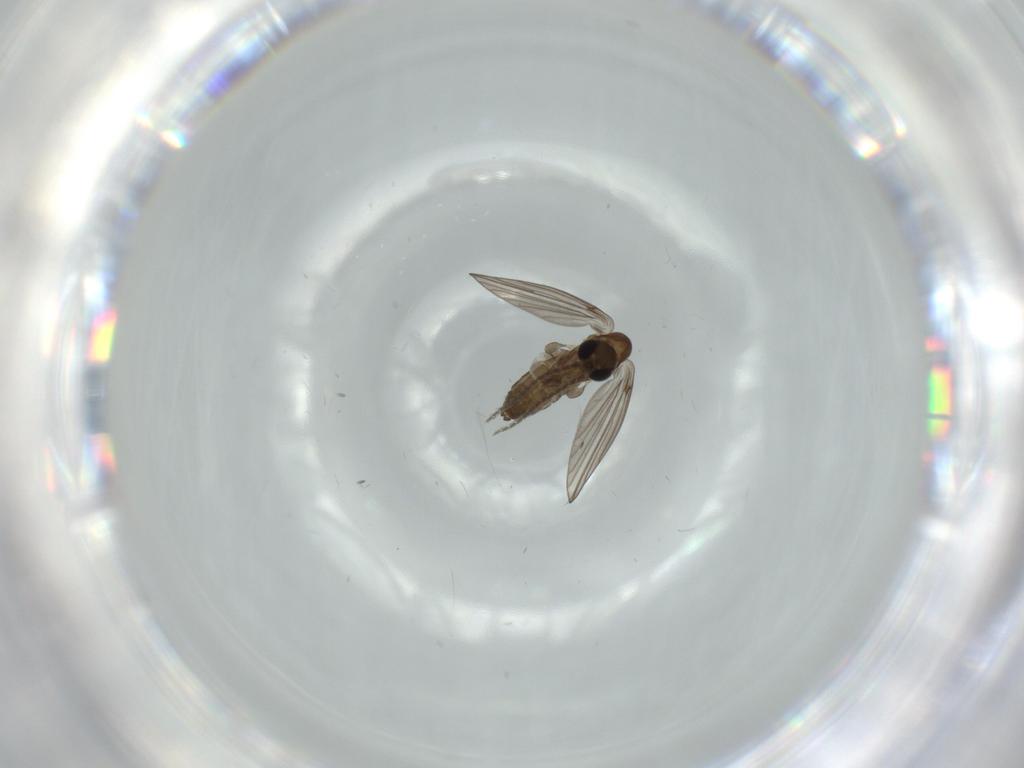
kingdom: Animalia
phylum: Arthropoda
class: Insecta
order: Diptera
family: Psychodidae
